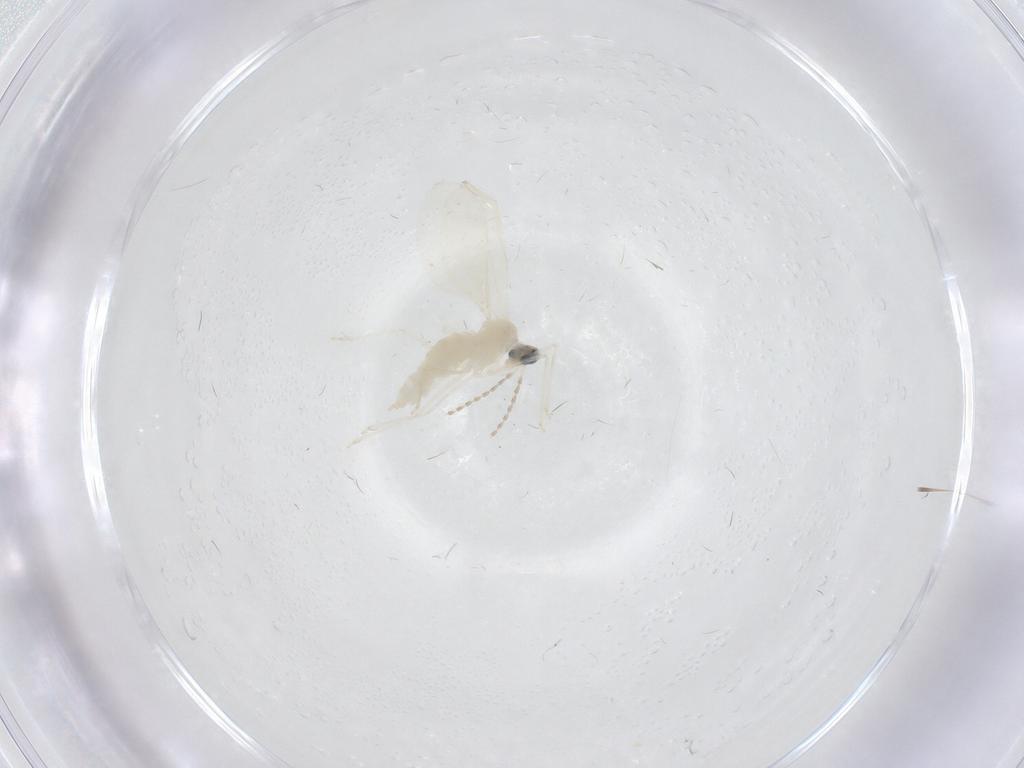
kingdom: Animalia
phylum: Arthropoda
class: Insecta
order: Diptera
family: Cecidomyiidae
